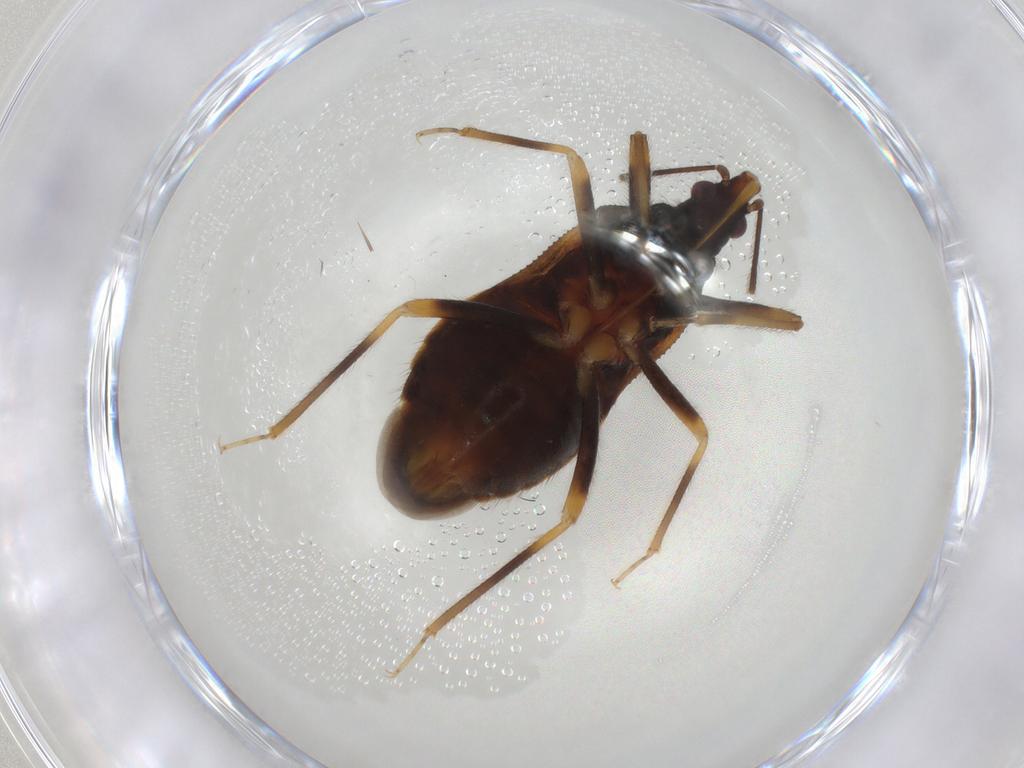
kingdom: Animalia
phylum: Arthropoda
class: Insecta
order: Hemiptera
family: Anthocoridae
